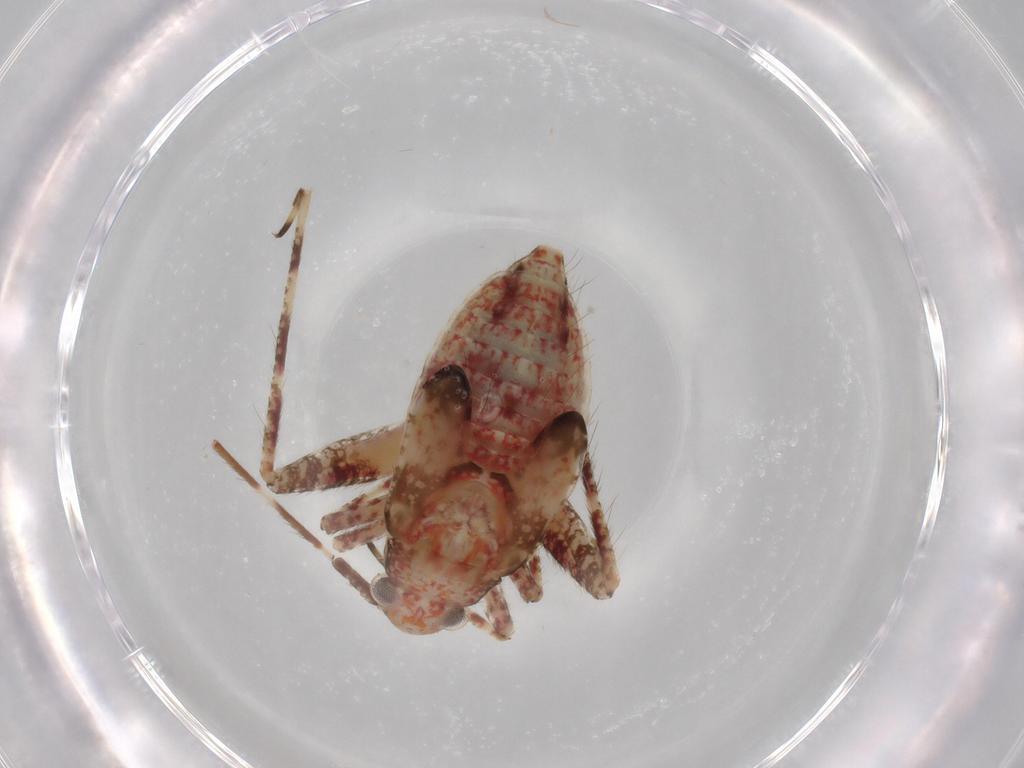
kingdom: Animalia
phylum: Arthropoda
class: Insecta
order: Hemiptera
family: Miridae
